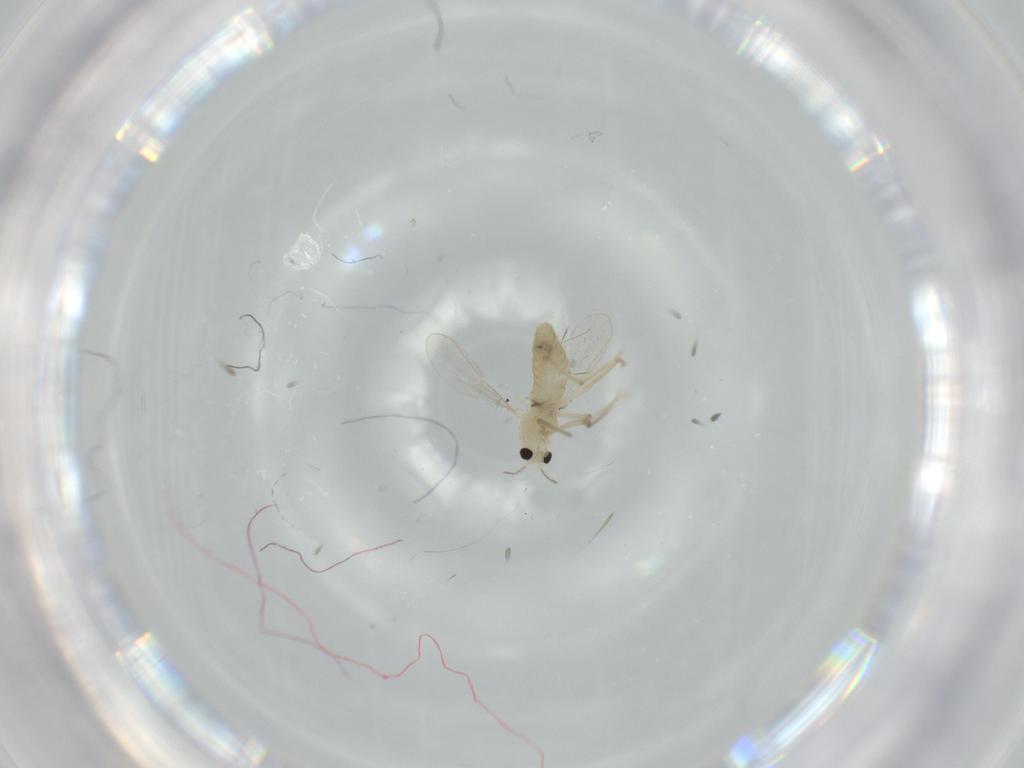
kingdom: Animalia
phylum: Arthropoda
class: Insecta
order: Diptera
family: Chironomidae
